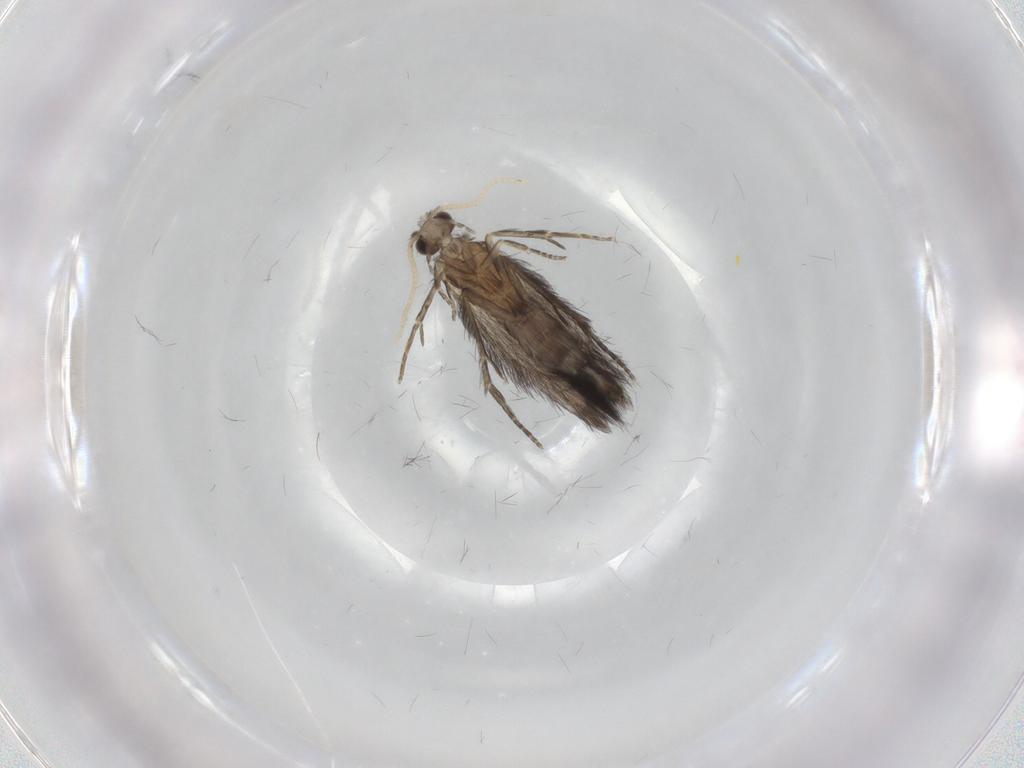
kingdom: Animalia
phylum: Arthropoda
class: Insecta
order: Trichoptera
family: Hydroptilidae
